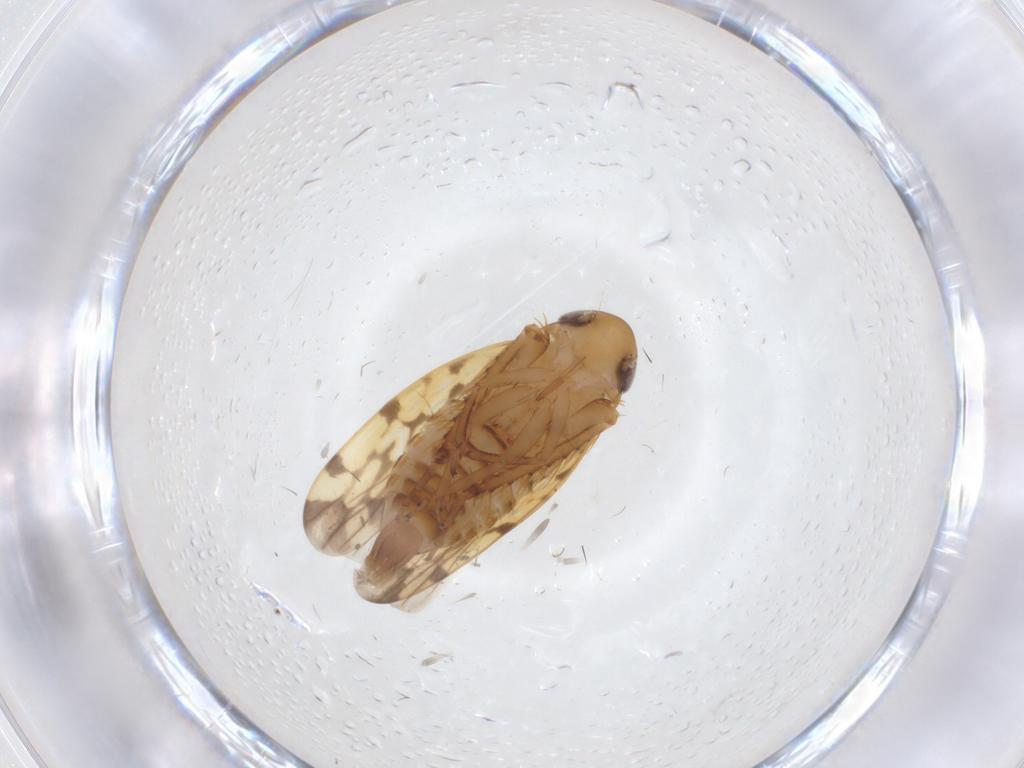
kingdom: Animalia
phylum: Arthropoda
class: Insecta
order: Hemiptera
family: Cicadellidae
